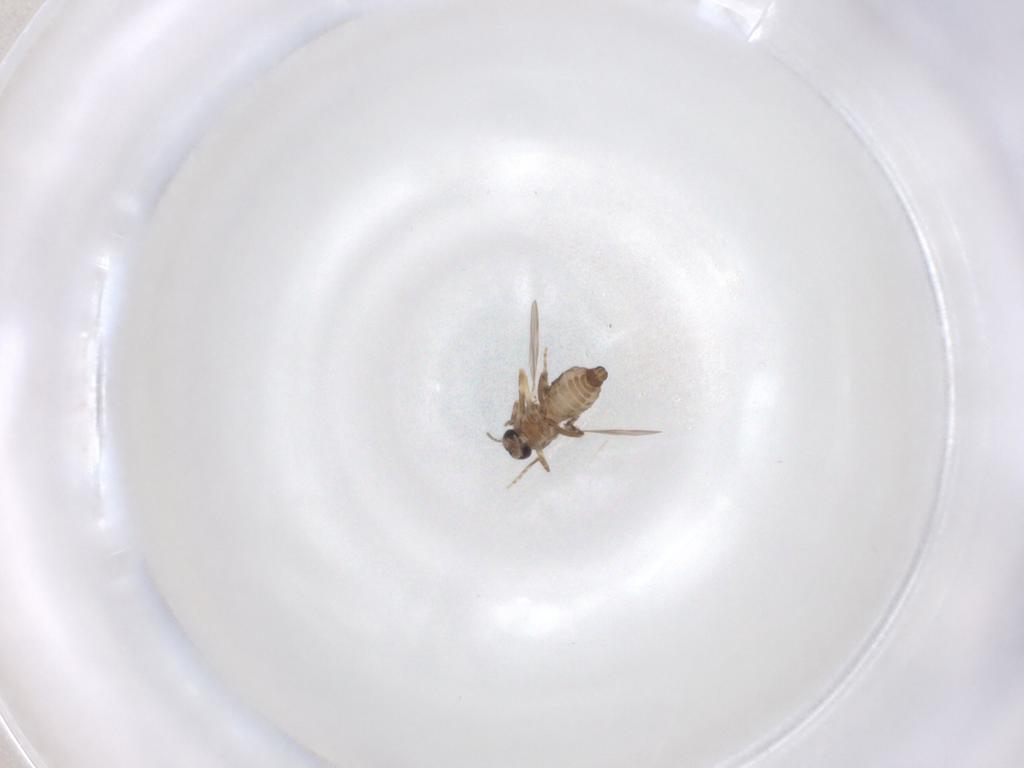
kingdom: Animalia
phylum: Arthropoda
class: Insecta
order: Diptera
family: Ceratopogonidae
